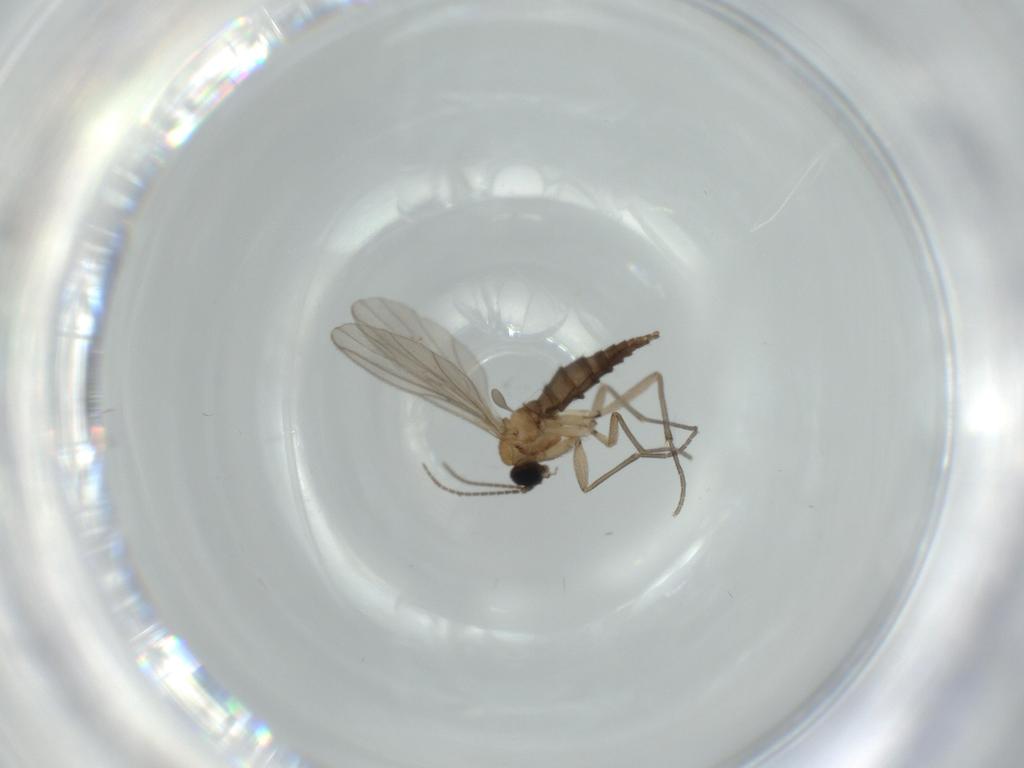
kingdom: Animalia
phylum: Arthropoda
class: Insecta
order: Diptera
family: Sciaridae
